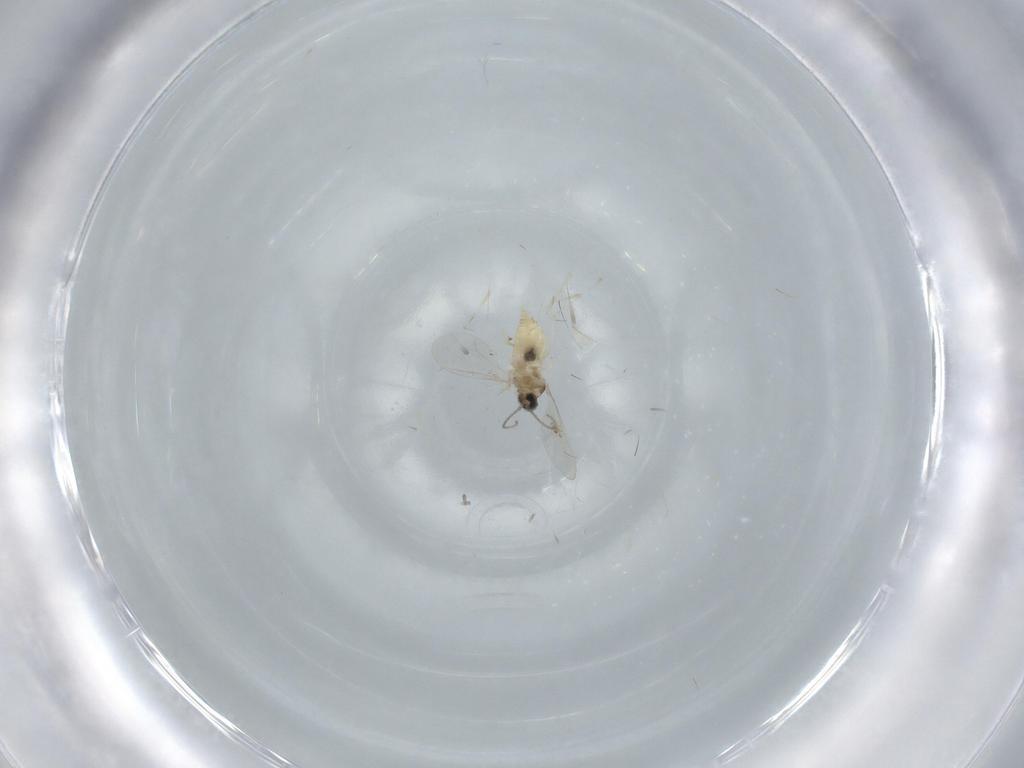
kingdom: Animalia
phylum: Arthropoda
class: Insecta
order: Diptera
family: Cecidomyiidae
